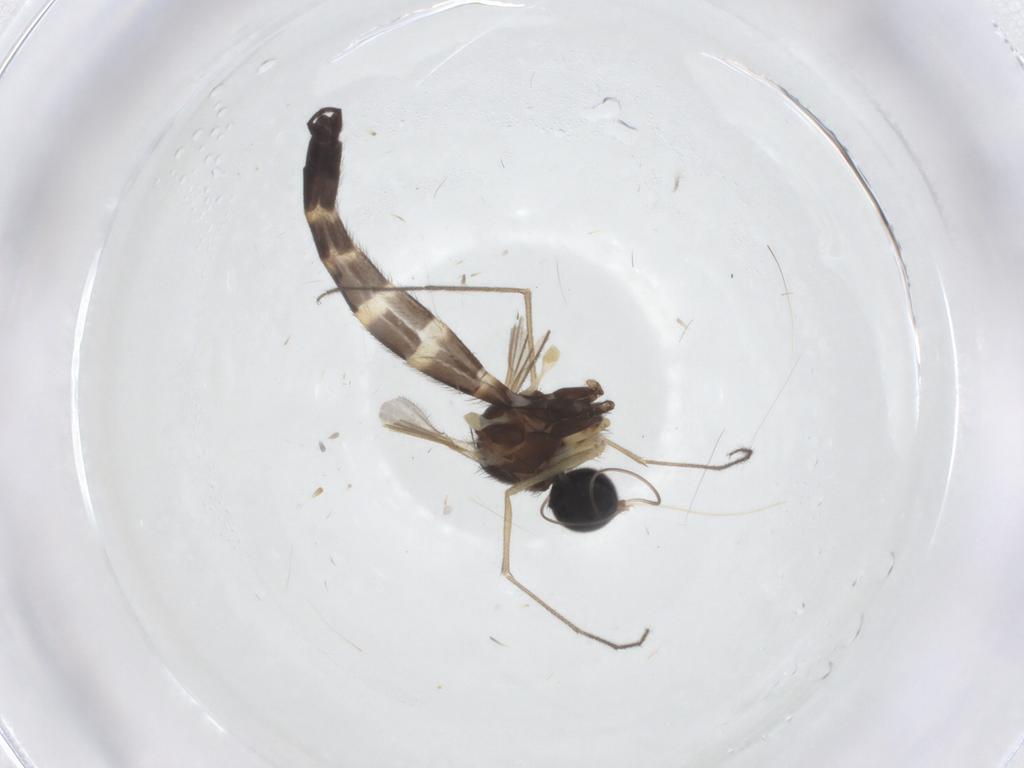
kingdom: Animalia
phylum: Arthropoda
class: Insecta
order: Diptera
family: Keroplatidae
